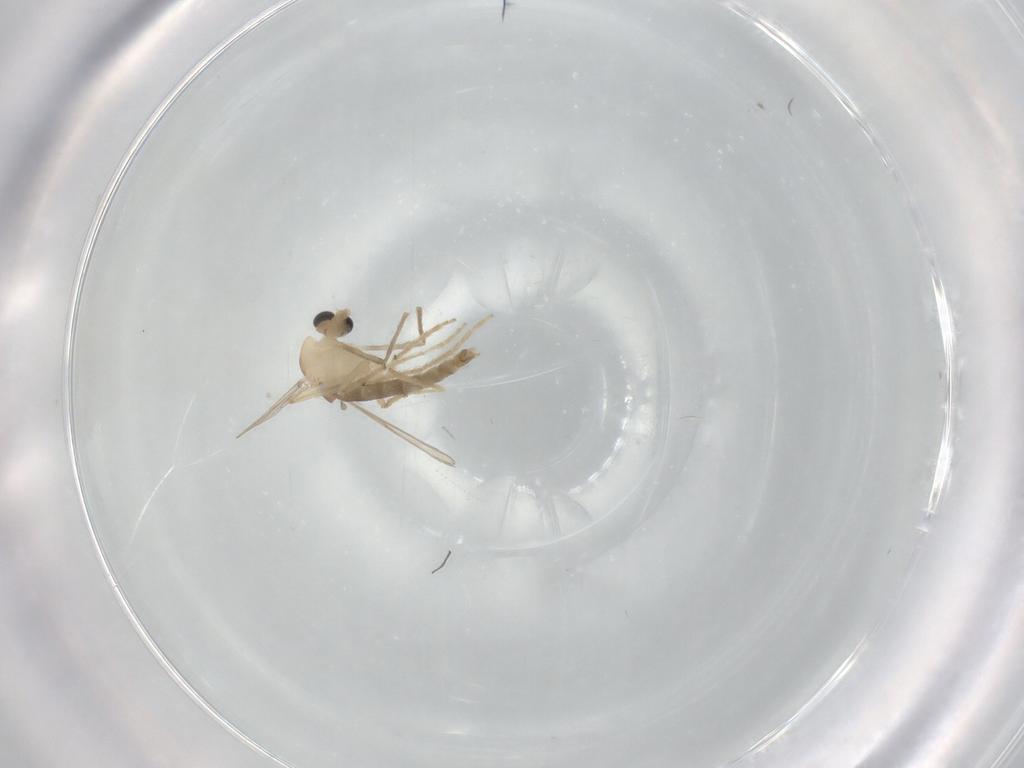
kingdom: Animalia
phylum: Arthropoda
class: Insecta
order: Diptera
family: Chironomidae
